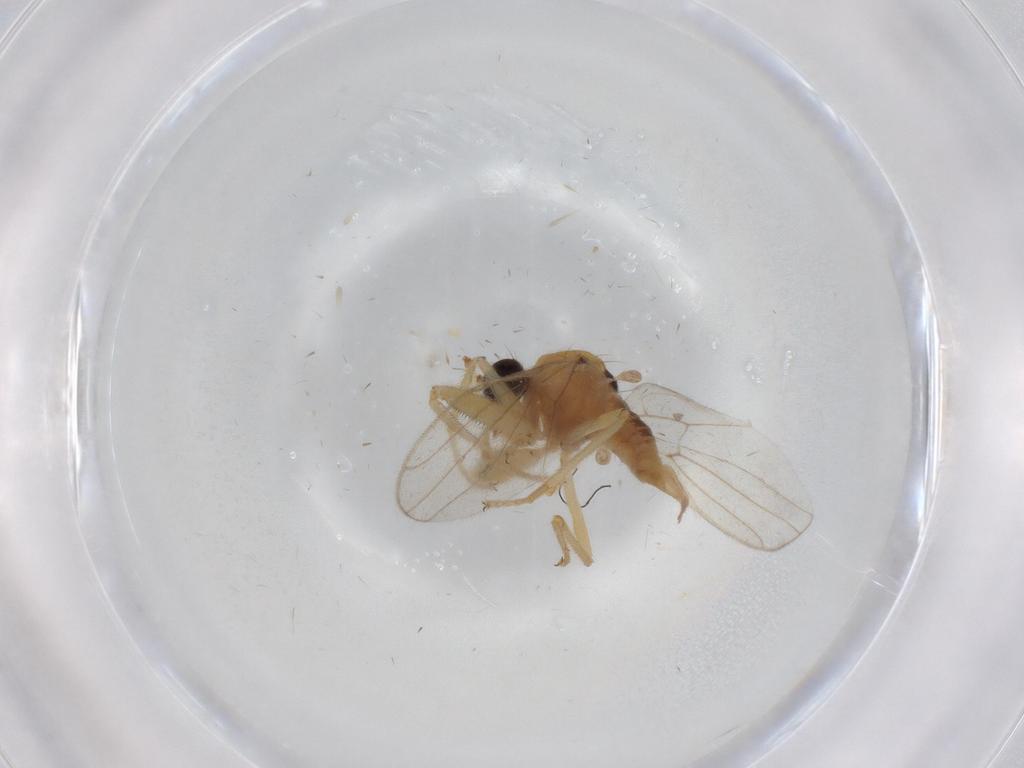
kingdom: Animalia
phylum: Arthropoda
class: Insecta
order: Diptera
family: Hybotidae
